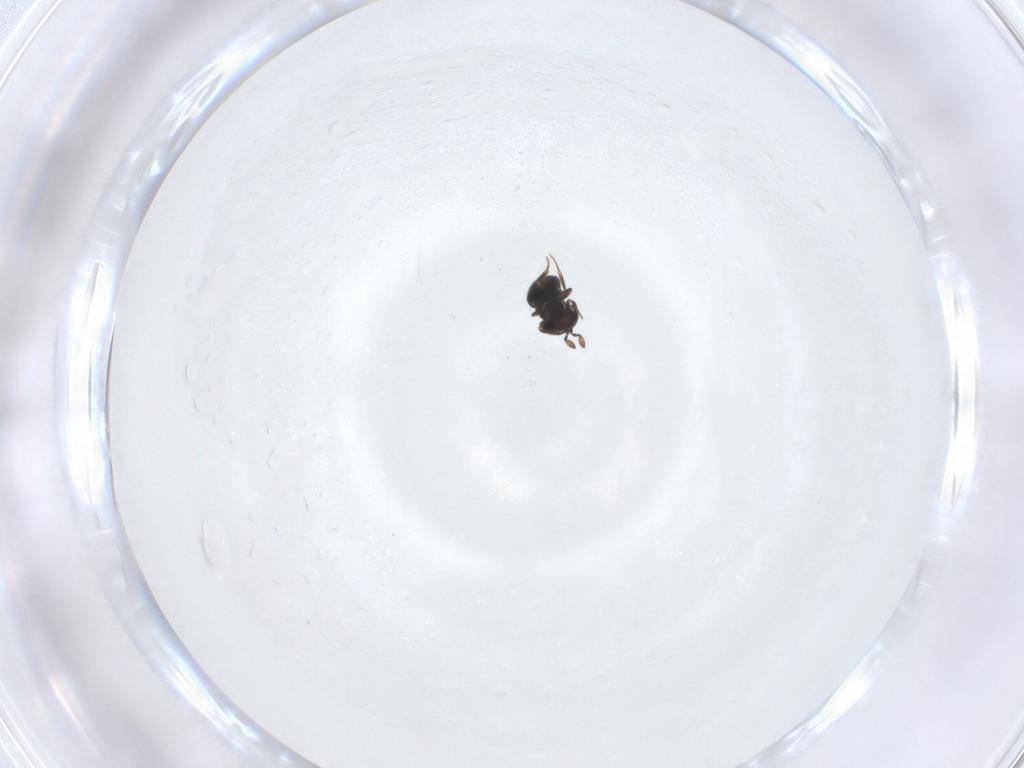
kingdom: Animalia
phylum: Arthropoda
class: Insecta
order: Hymenoptera
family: Scelionidae
